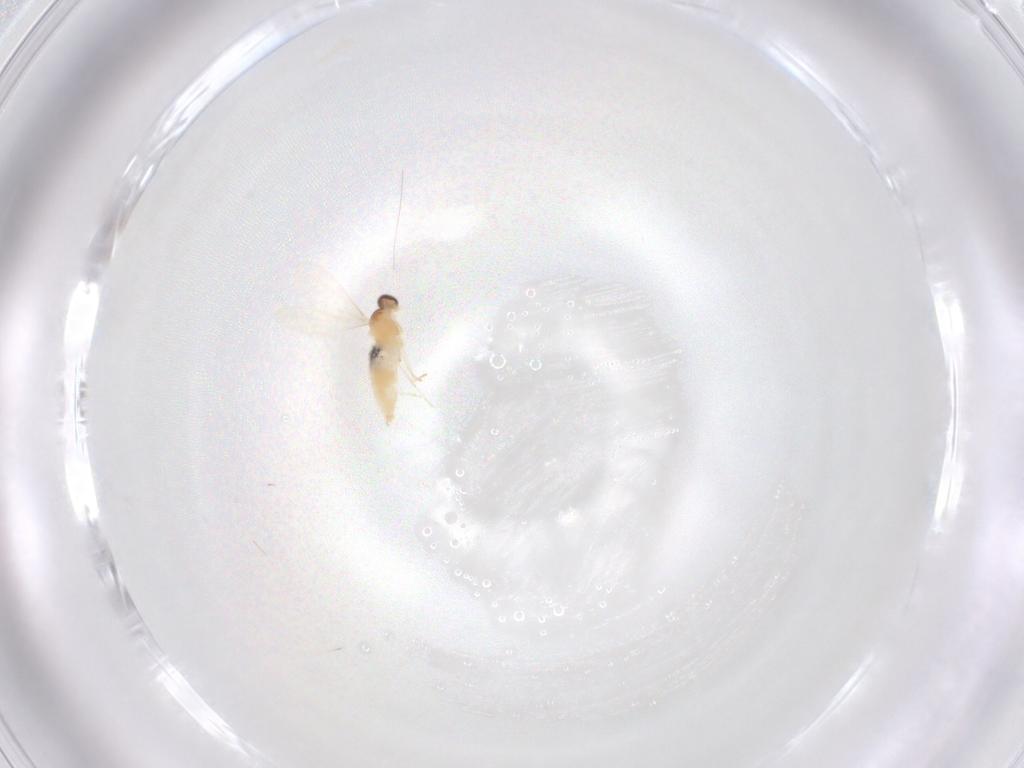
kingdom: Animalia
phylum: Arthropoda
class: Insecta
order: Diptera
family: Cecidomyiidae
